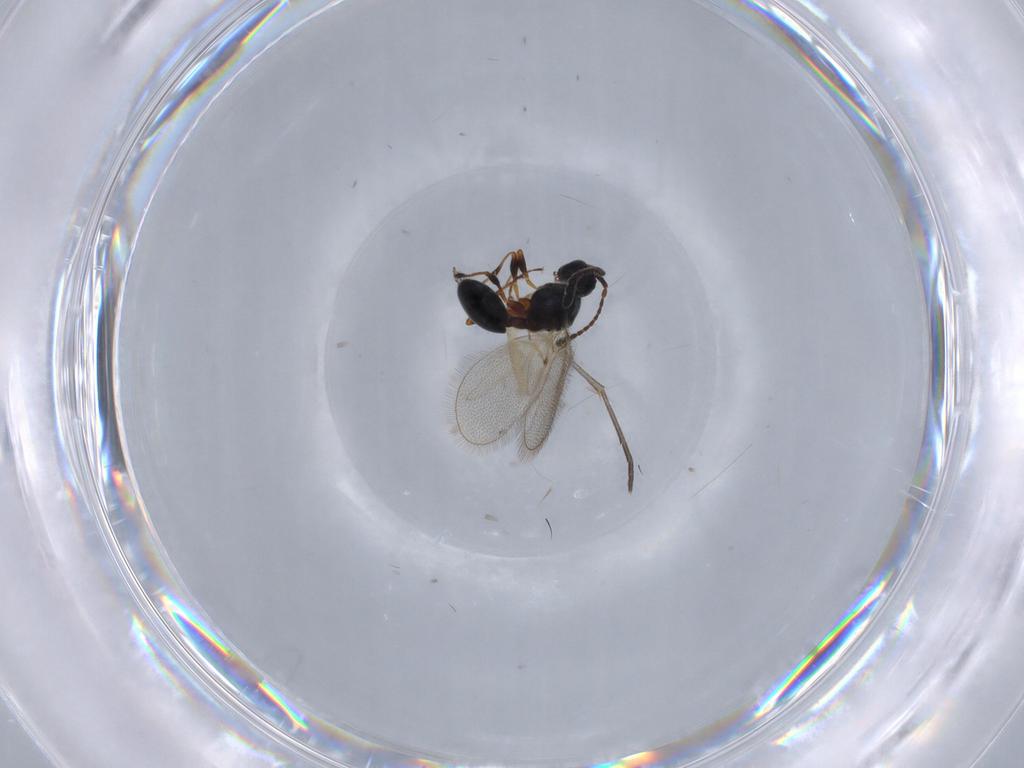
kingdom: Animalia
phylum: Arthropoda
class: Insecta
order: Hymenoptera
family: Diapriidae
